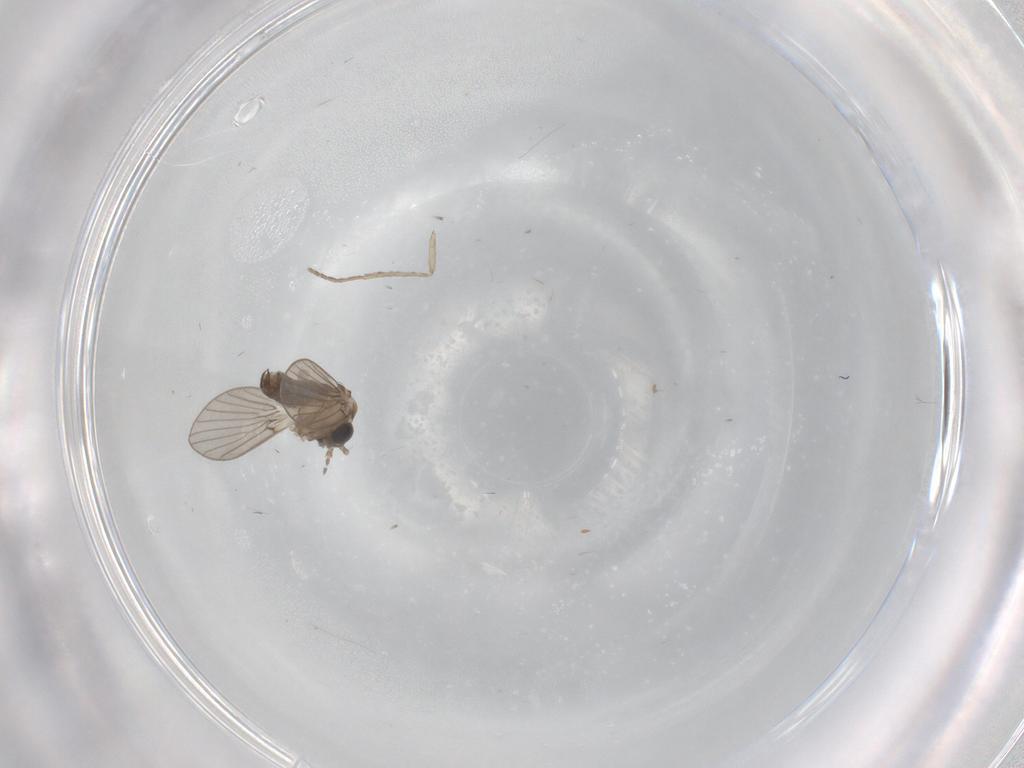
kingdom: Animalia
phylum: Arthropoda
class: Insecta
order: Diptera
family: Psychodidae
